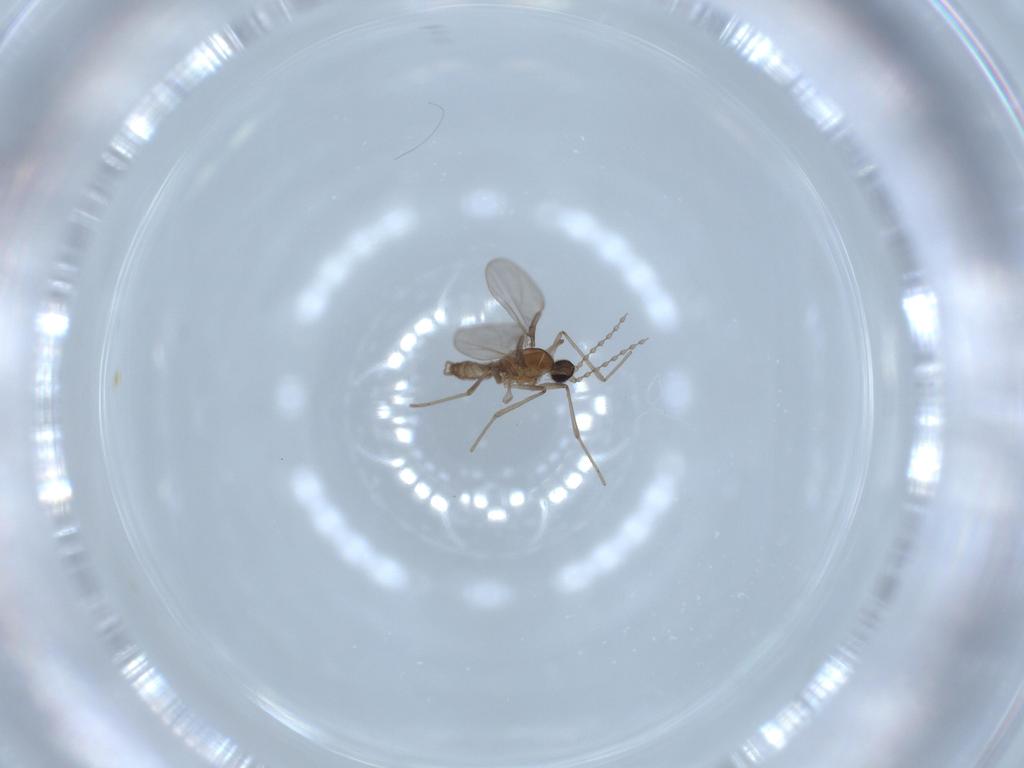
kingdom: Animalia
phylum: Arthropoda
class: Insecta
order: Diptera
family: Cecidomyiidae
